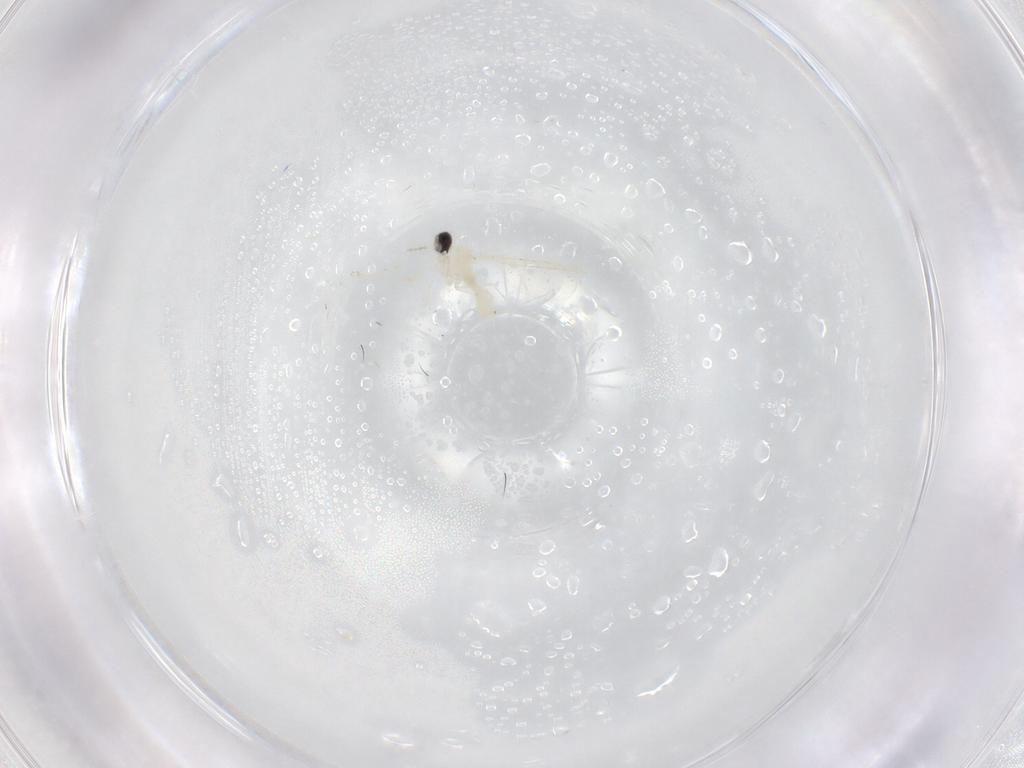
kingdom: Animalia
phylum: Arthropoda
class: Insecta
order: Diptera
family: Cecidomyiidae
